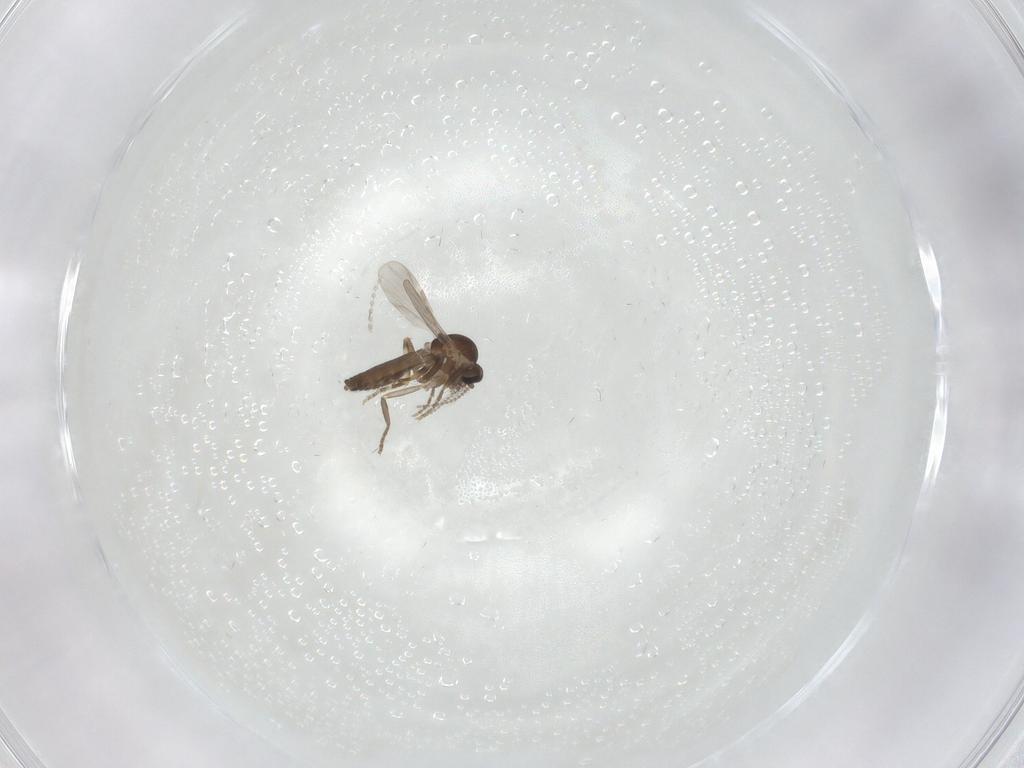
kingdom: Animalia
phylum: Arthropoda
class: Insecta
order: Diptera
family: Ceratopogonidae
